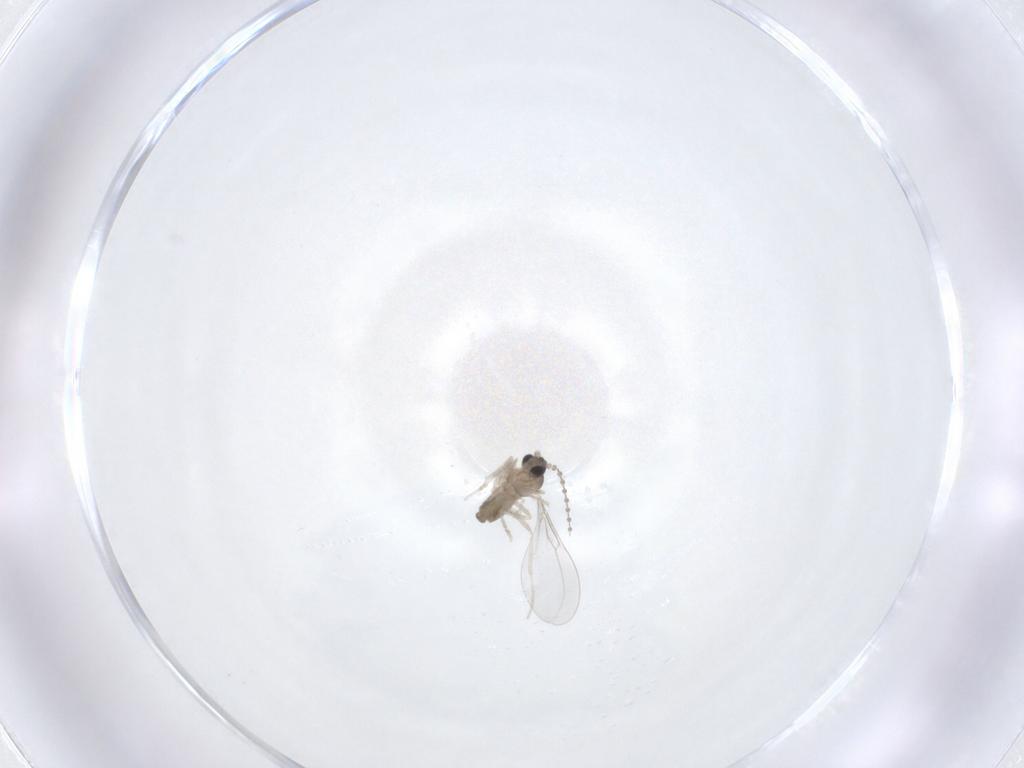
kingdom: Animalia
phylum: Arthropoda
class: Insecta
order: Diptera
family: Cecidomyiidae
